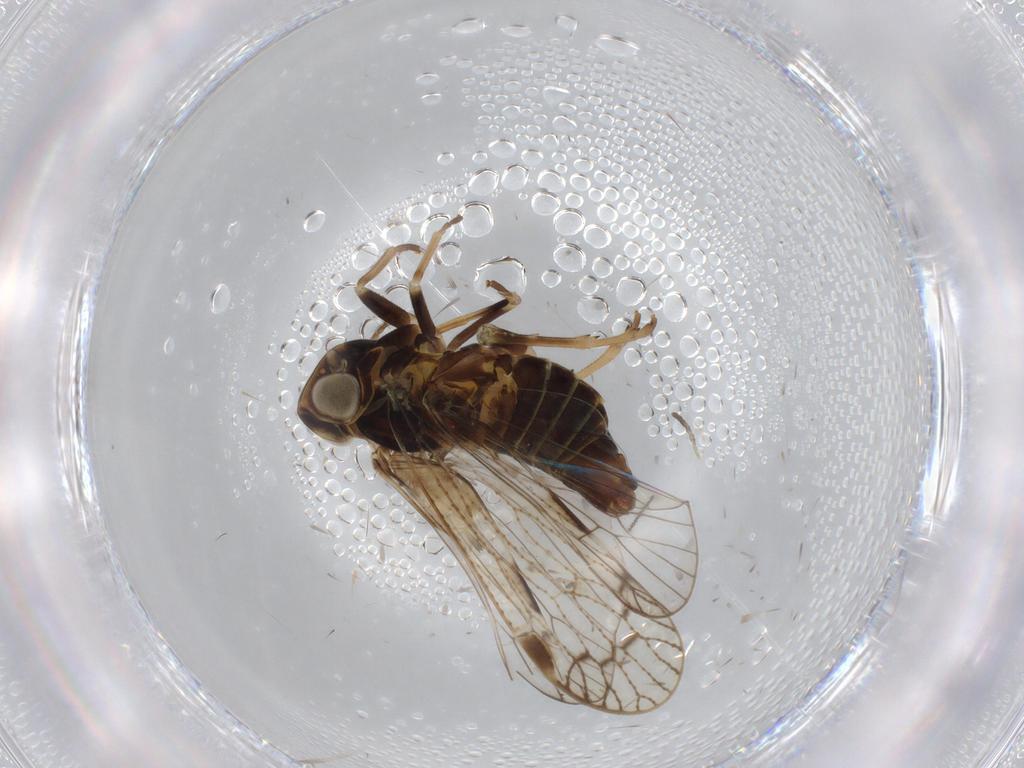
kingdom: Animalia
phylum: Arthropoda
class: Insecta
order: Hemiptera
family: Cixiidae
